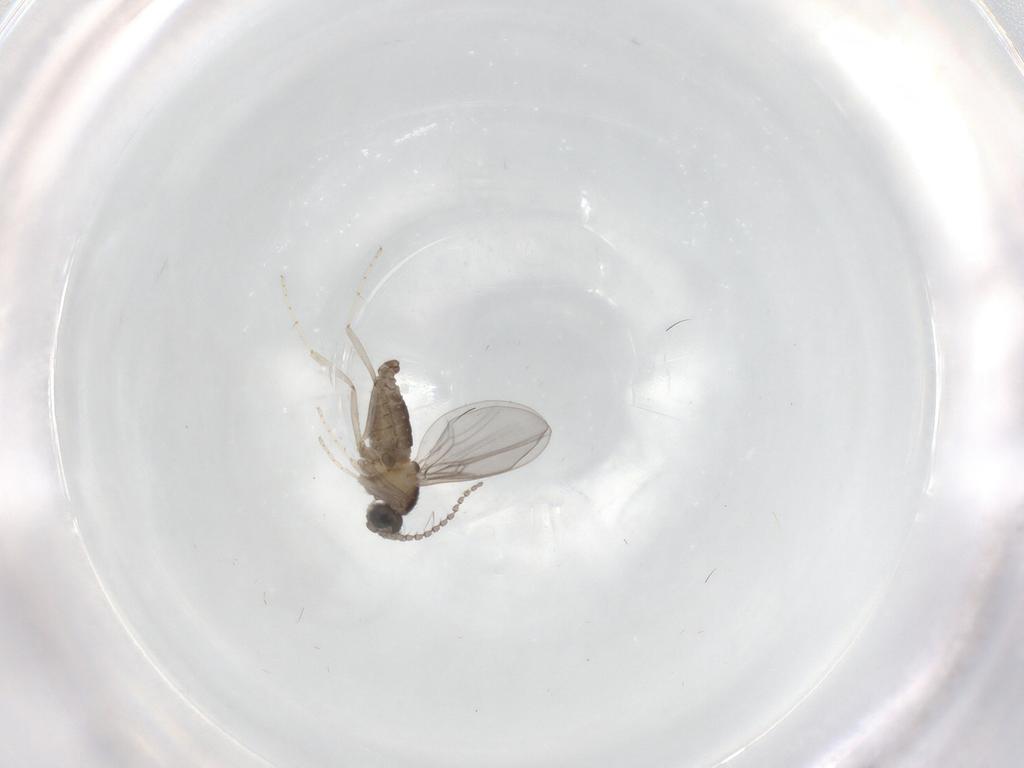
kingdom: Animalia
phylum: Arthropoda
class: Insecta
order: Diptera
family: Cecidomyiidae
